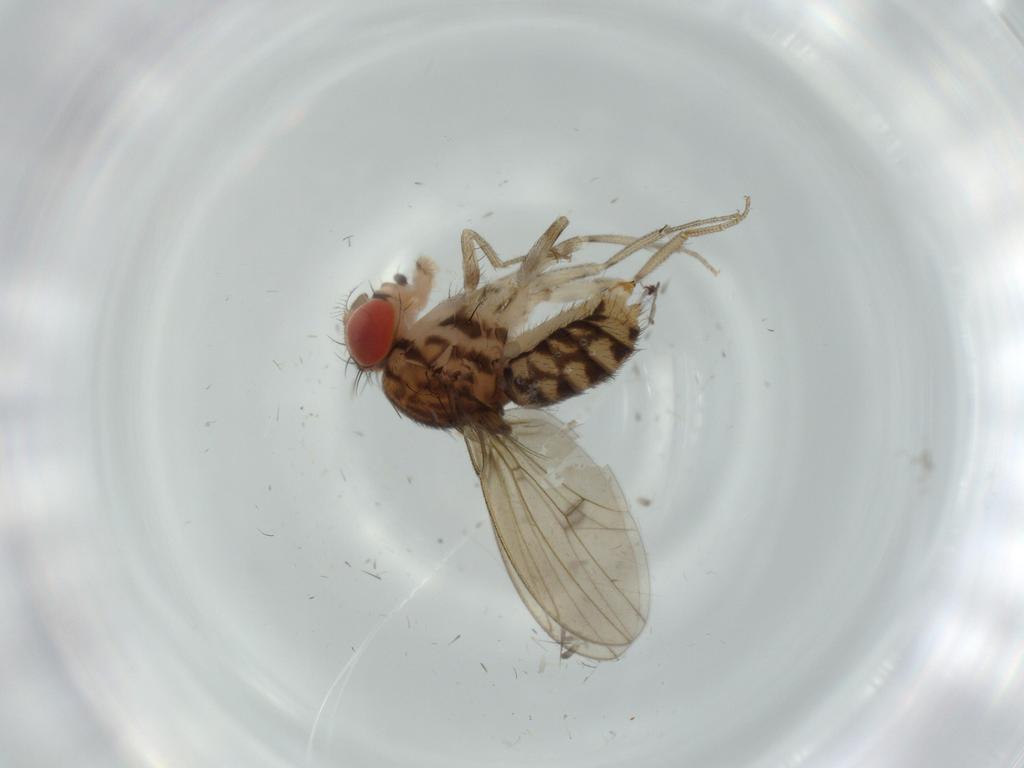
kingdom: Animalia
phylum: Arthropoda
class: Insecta
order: Diptera
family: Drosophilidae
